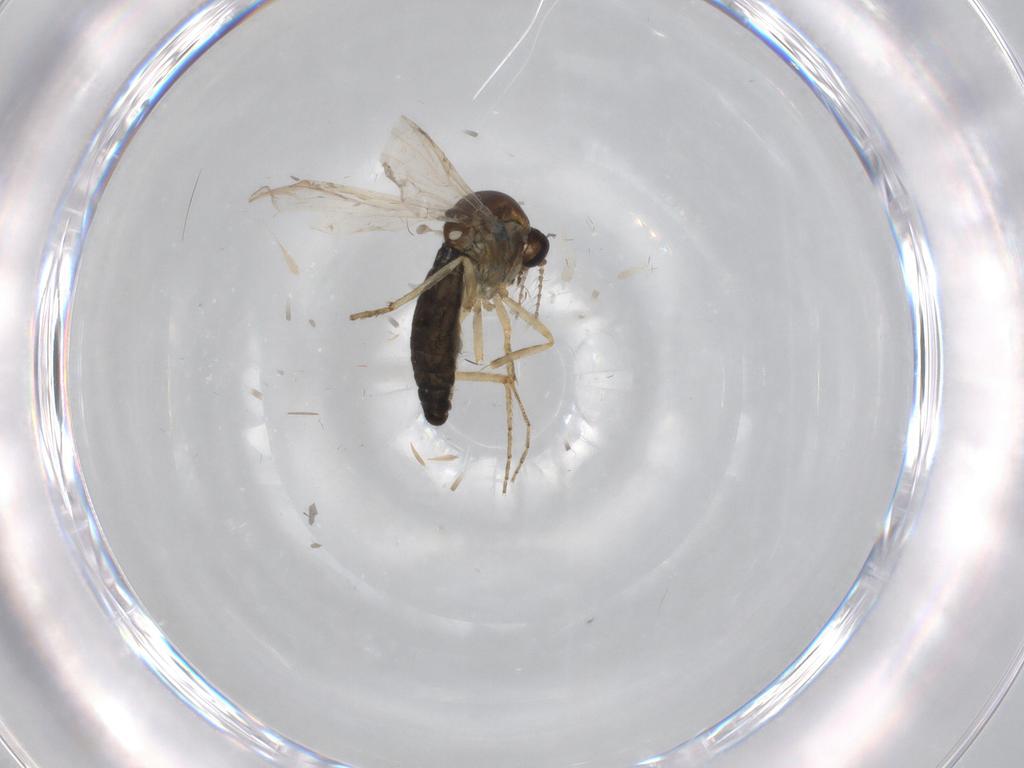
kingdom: Animalia
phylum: Arthropoda
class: Insecta
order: Diptera
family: Ceratopogonidae
